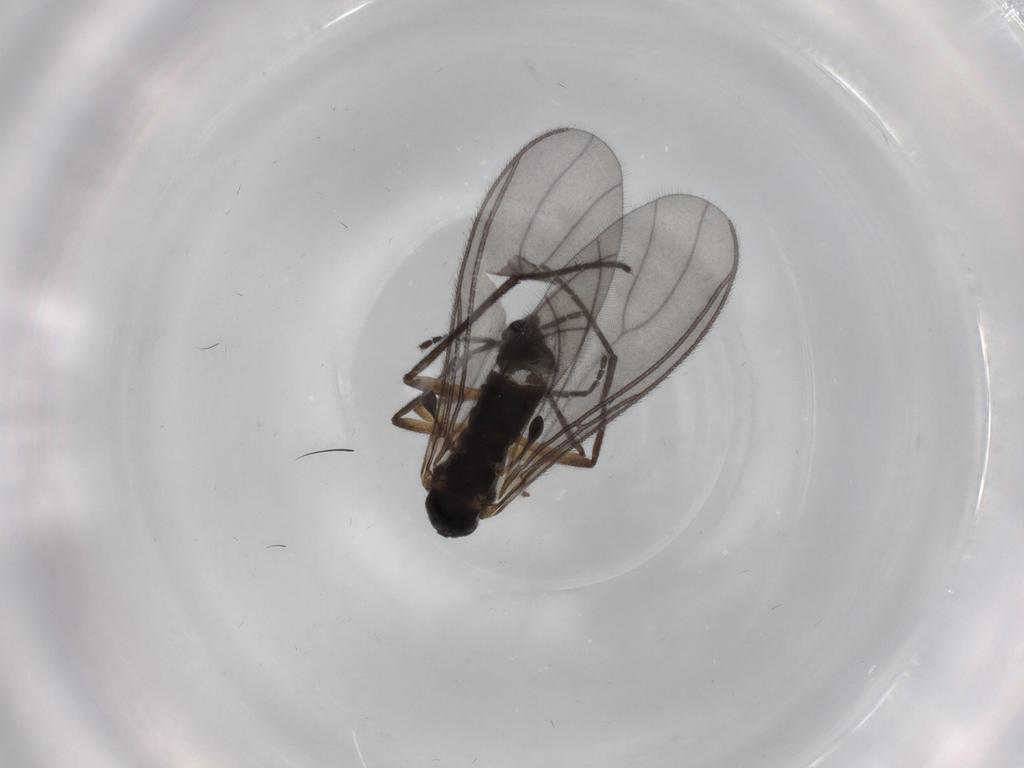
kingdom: Animalia
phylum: Arthropoda
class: Insecta
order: Diptera
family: Sciaridae
